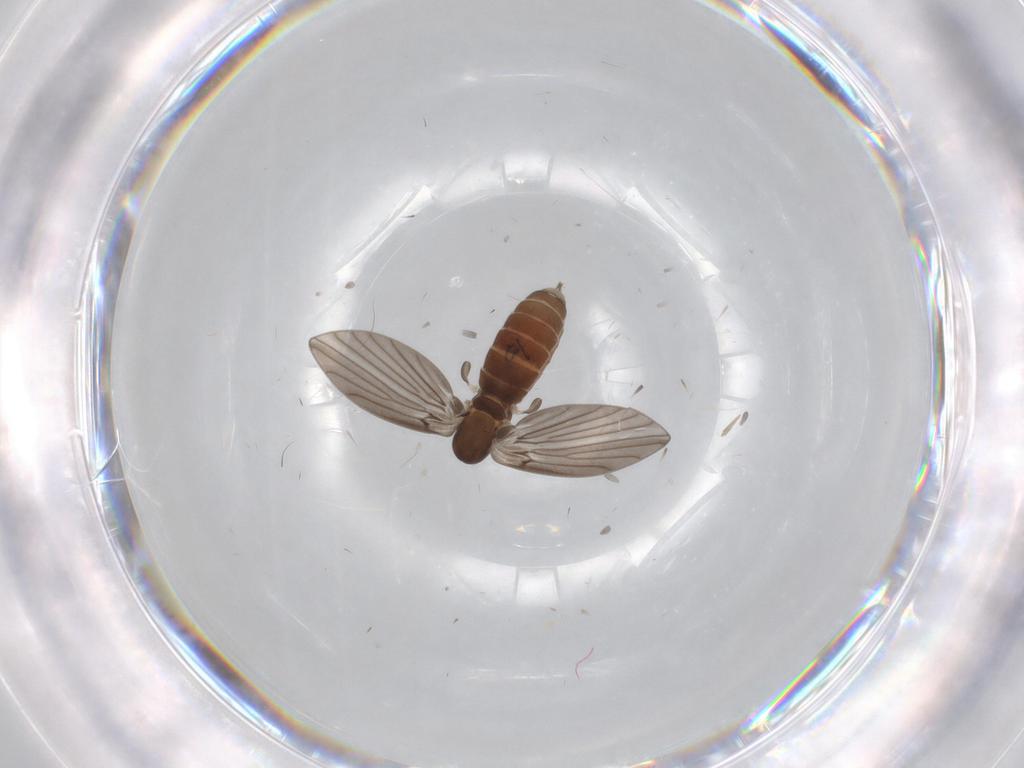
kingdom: Animalia
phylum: Arthropoda
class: Insecta
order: Diptera
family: Psychodidae
